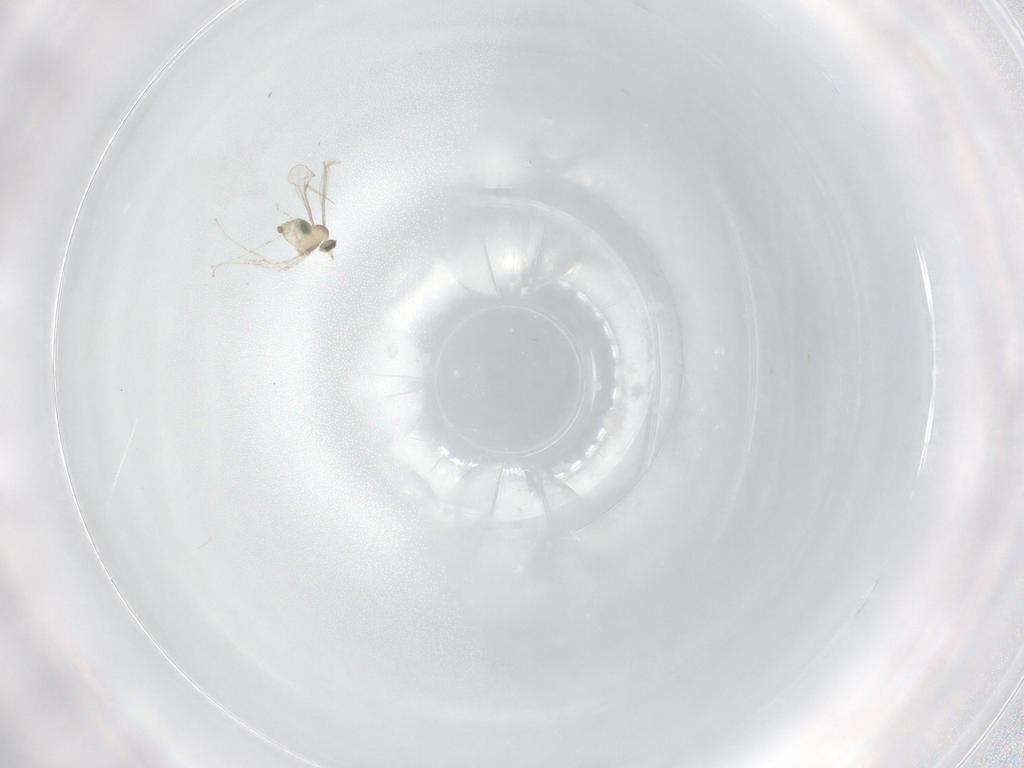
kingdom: Animalia
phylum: Arthropoda
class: Insecta
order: Diptera
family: Cecidomyiidae
